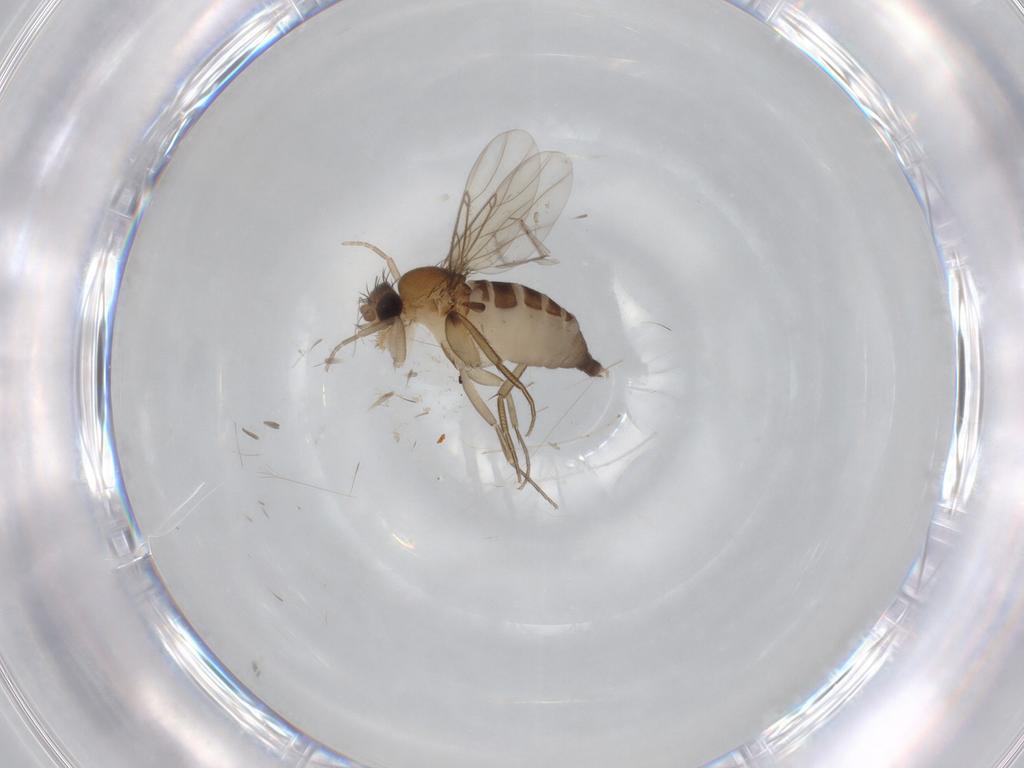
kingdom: Animalia
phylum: Arthropoda
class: Insecta
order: Diptera
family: Phoridae
